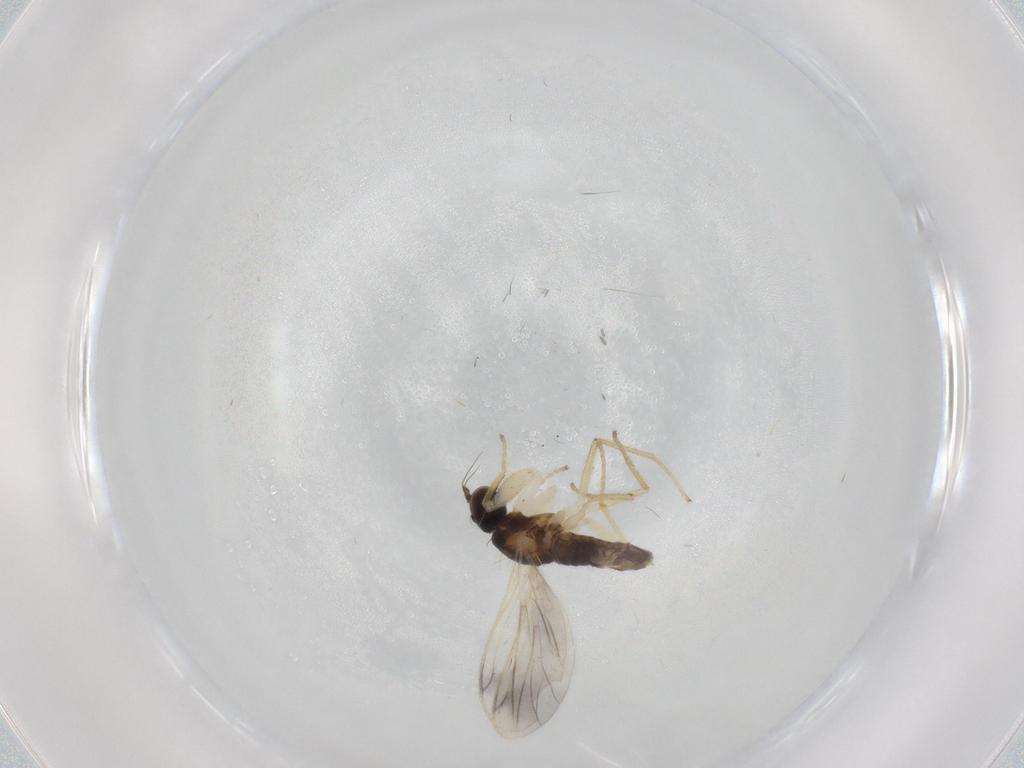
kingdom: Animalia
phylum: Arthropoda
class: Insecta
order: Diptera
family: Empididae
